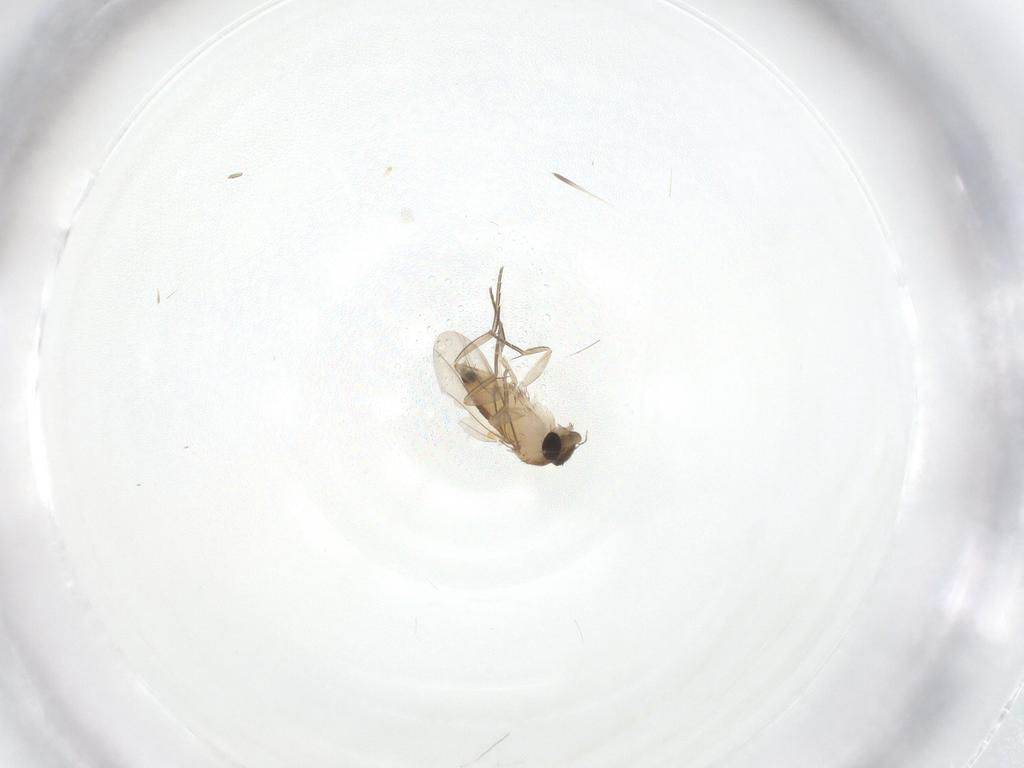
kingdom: Animalia
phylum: Arthropoda
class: Insecta
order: Diptera
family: Phoridae
